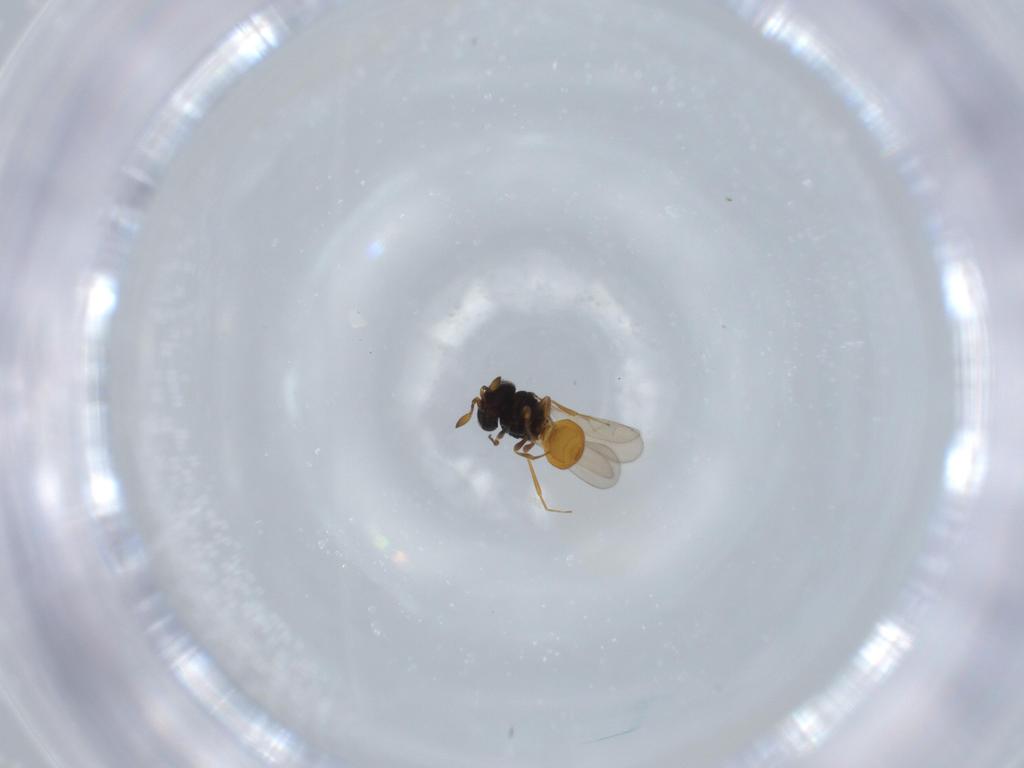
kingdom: Animalia
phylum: Arthropoda
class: Insecta
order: Hymenoptera
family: Scelionidae
